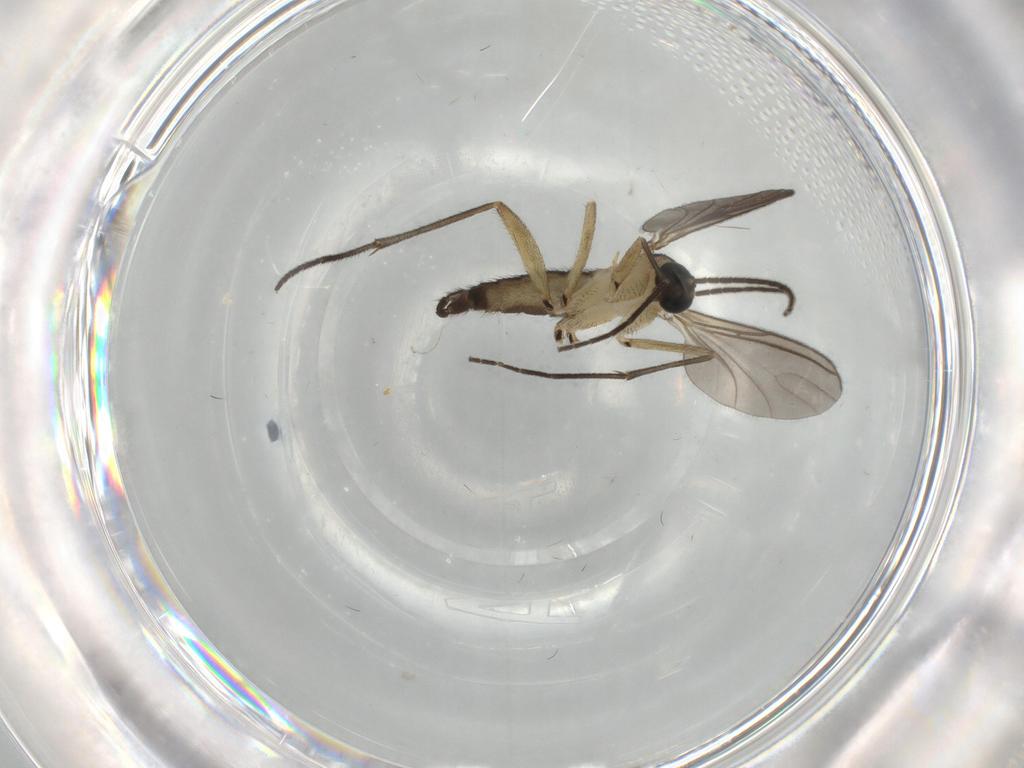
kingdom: Animalia
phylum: Arthropoda
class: Insecta
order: Diptera
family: Sciaridae
